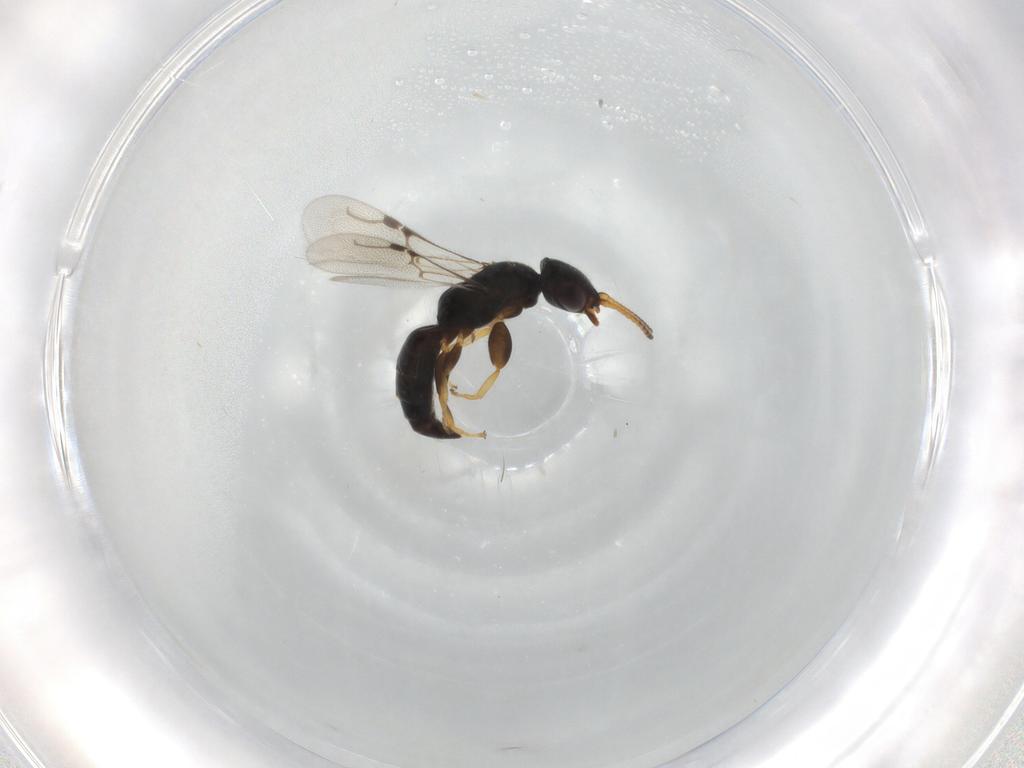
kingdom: Animalia
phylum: Arthropoda
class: Insecta
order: Hymenoptera
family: Bethylidae
